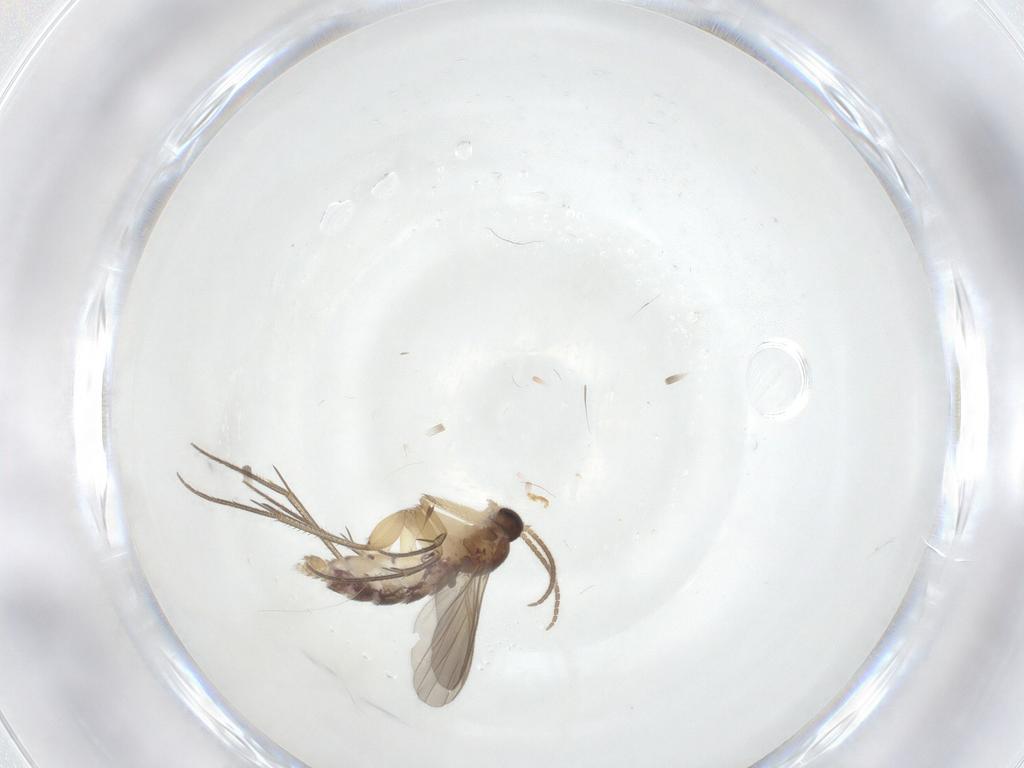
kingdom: Animalia
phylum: Arthropoda
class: Insecta
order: Diptera
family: Mycetophilidae
